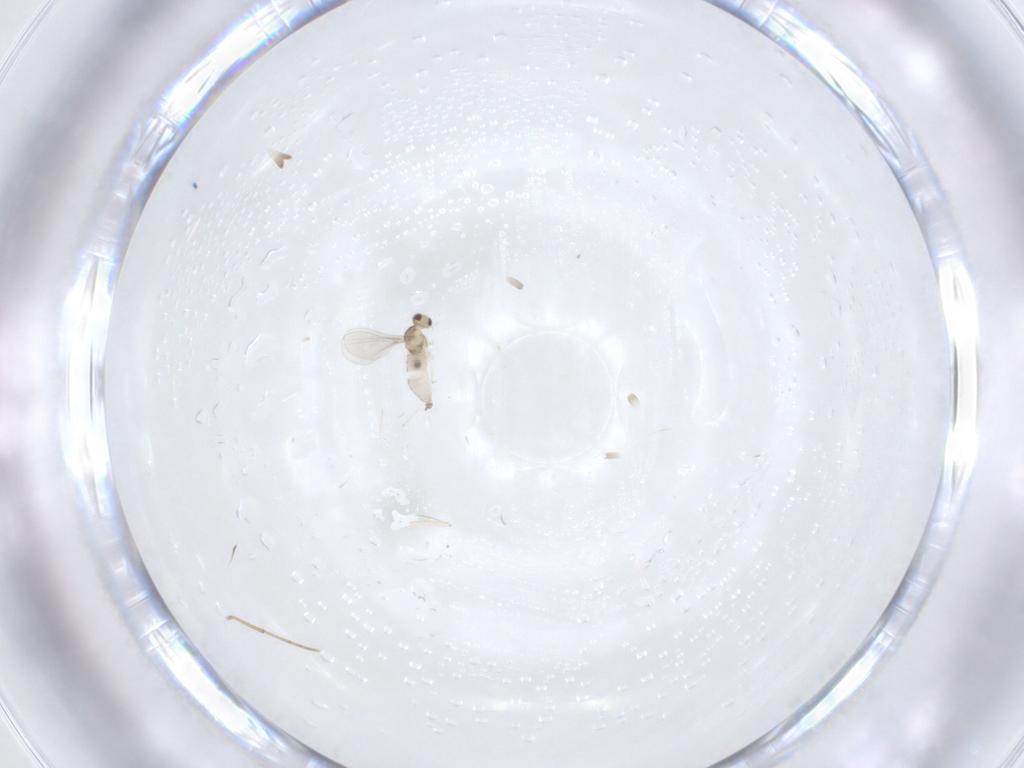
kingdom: Animalia
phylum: Arthropoda
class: Insecta
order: Diptera
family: Cecidomyiidae
